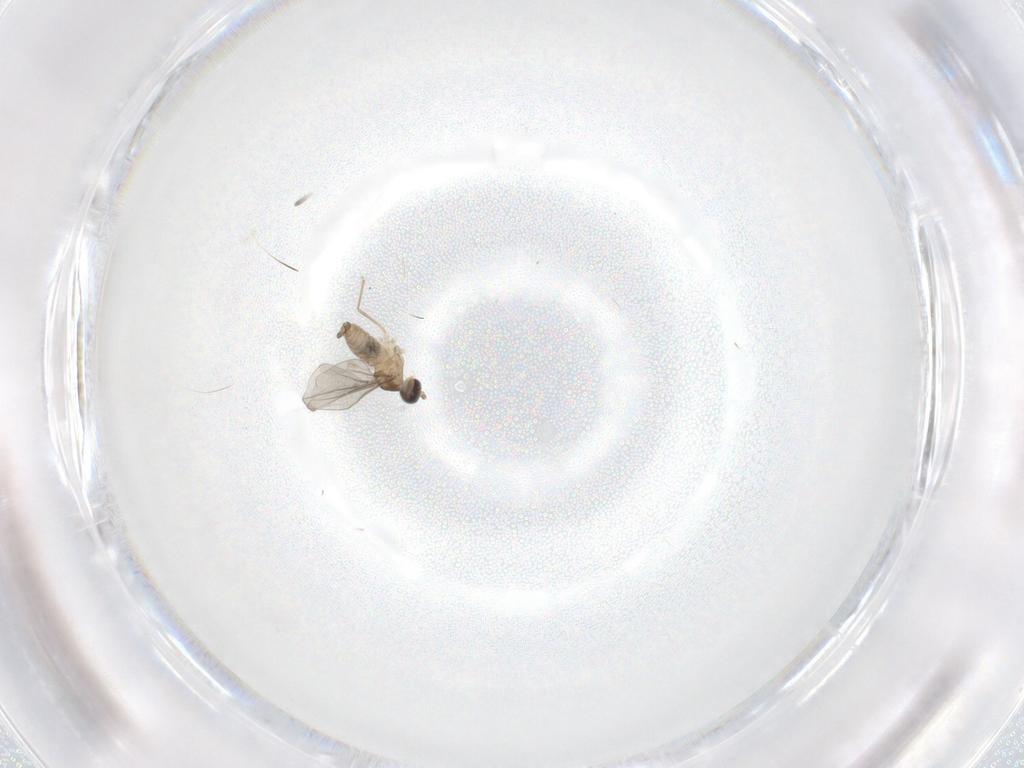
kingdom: Animalia
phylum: Arthropoda
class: Insecta
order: Diptera
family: Cecidomyiidae
